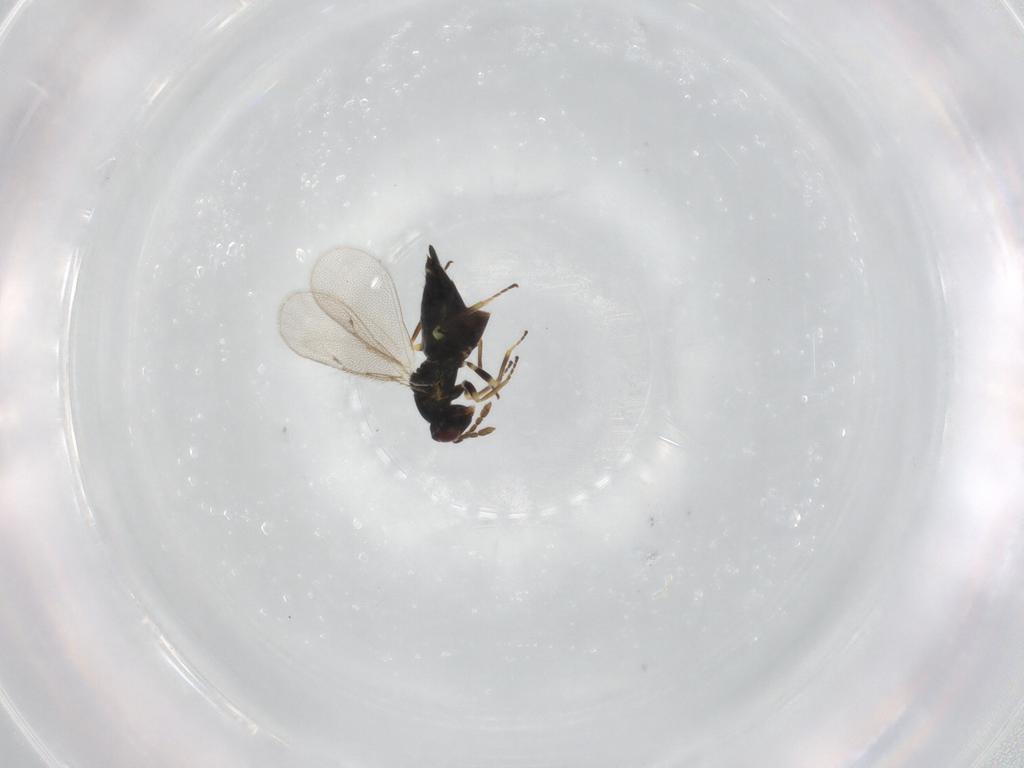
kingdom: Animalia
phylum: Arthropoda
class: Insecta
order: Hymenoptera
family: Eulophidae
